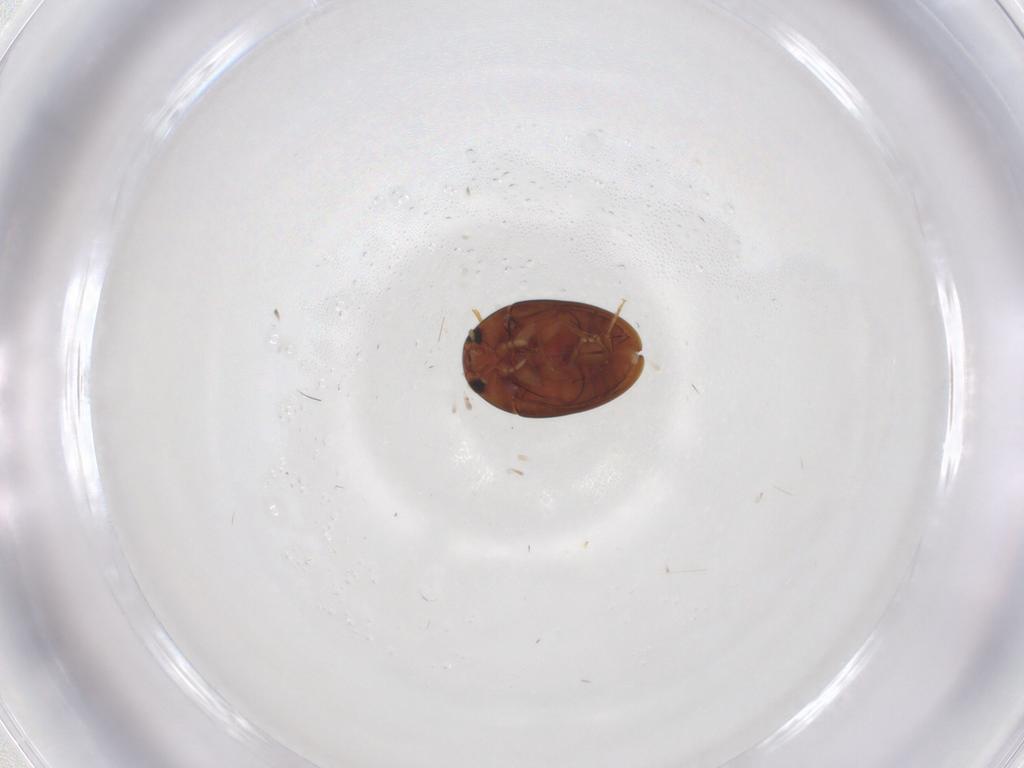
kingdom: Animalia
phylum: Arthropoda
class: Insecta
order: Coleoptera
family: Phalacridae
